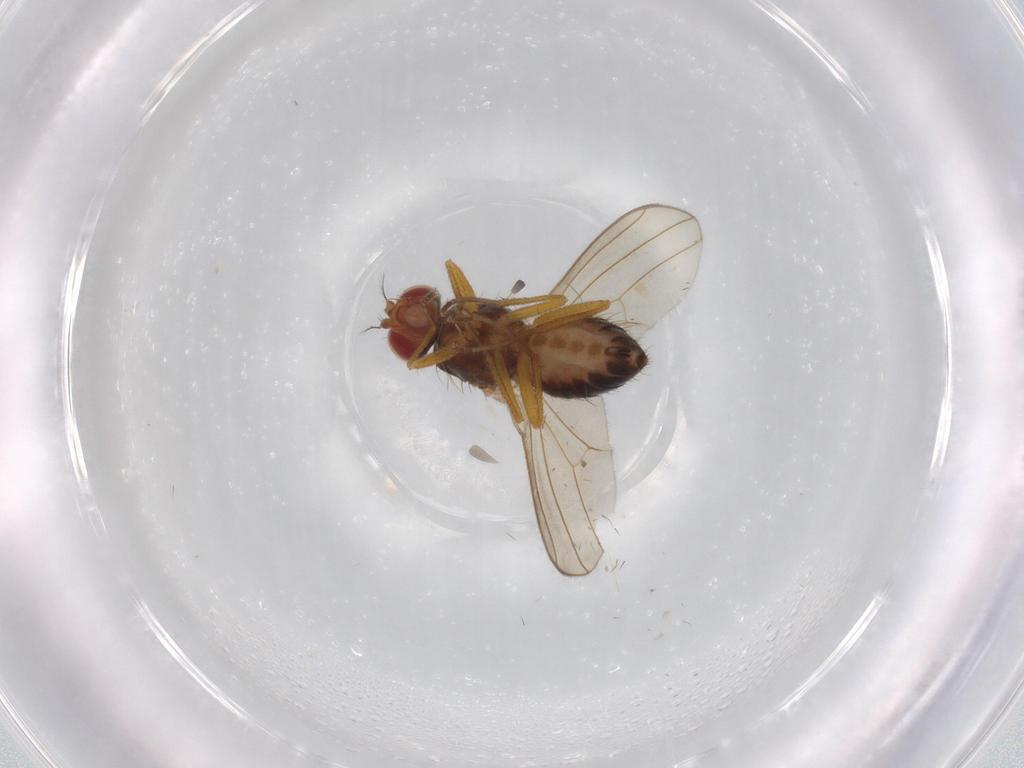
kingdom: Animalia
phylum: Arthropoda
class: Insecta
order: Diptera
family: Drosophilidae
